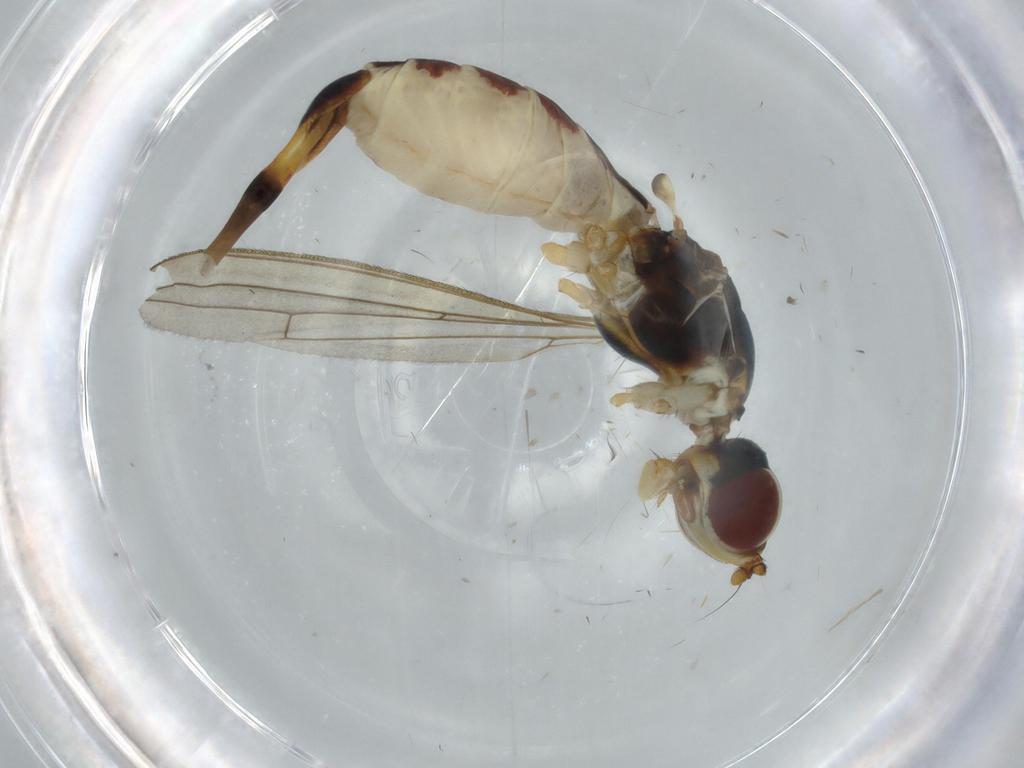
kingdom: Animalia
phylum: Arthropoda
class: Insecta
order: Diptera
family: Micropezidae
